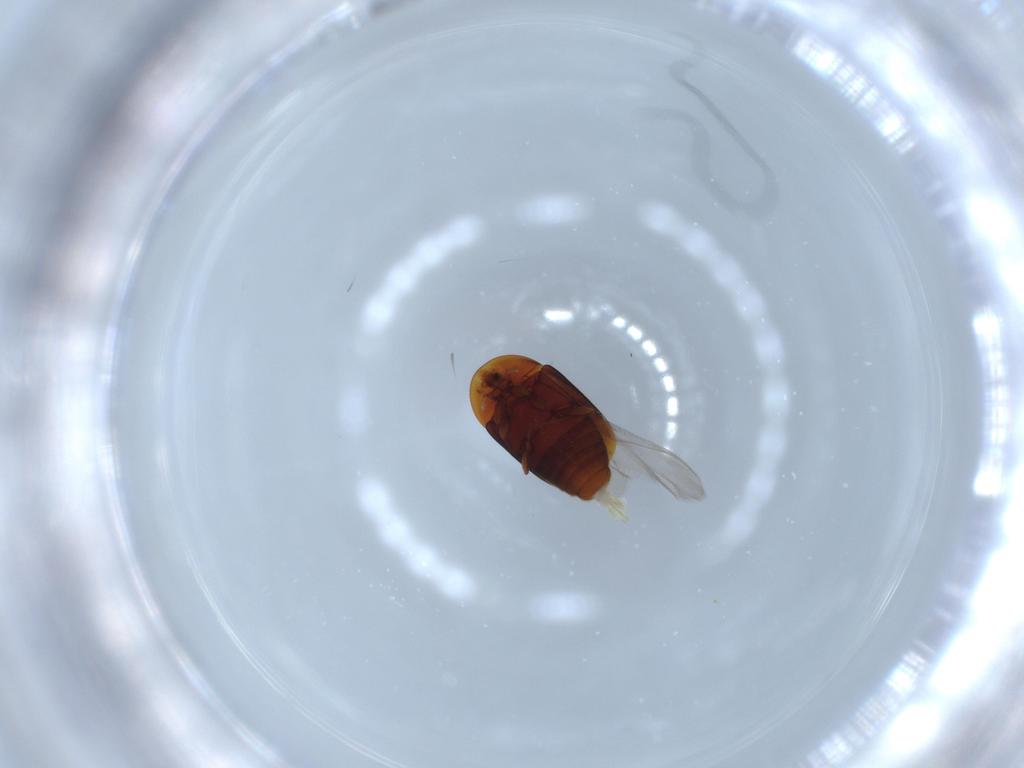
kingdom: Animalia
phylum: Arthropoda
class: Insecta
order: Coleoptera
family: Corylophidae
